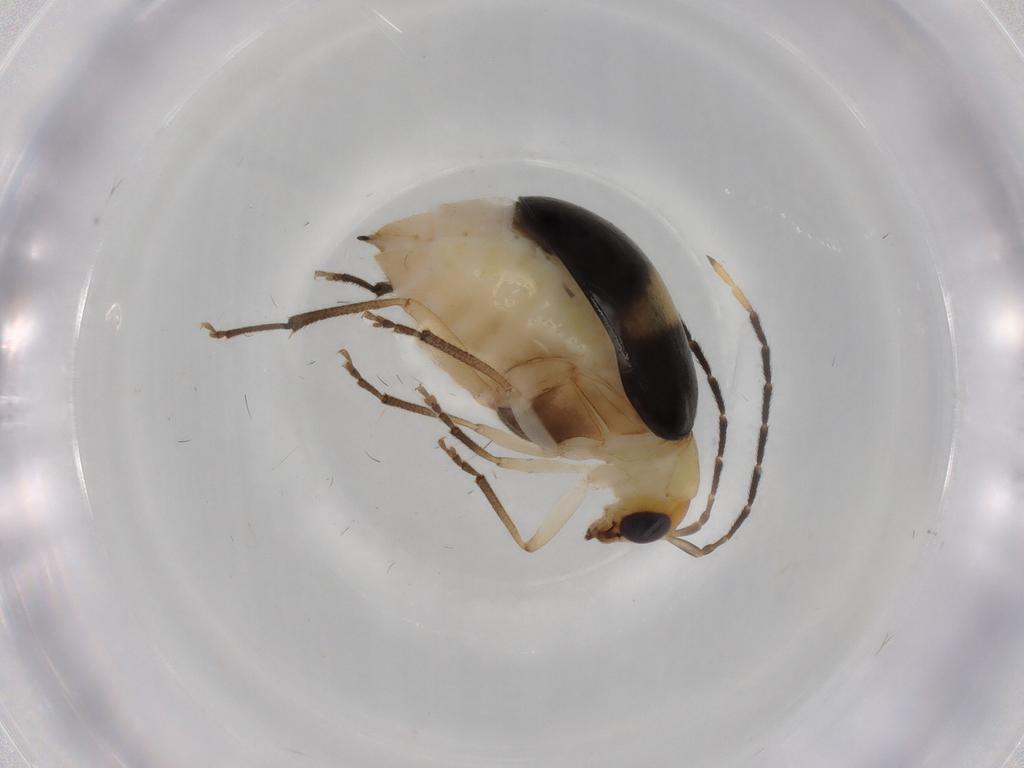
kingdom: Animalia
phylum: Arthropoda
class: Insecta
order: Coleoptera
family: Chrysomelidae
